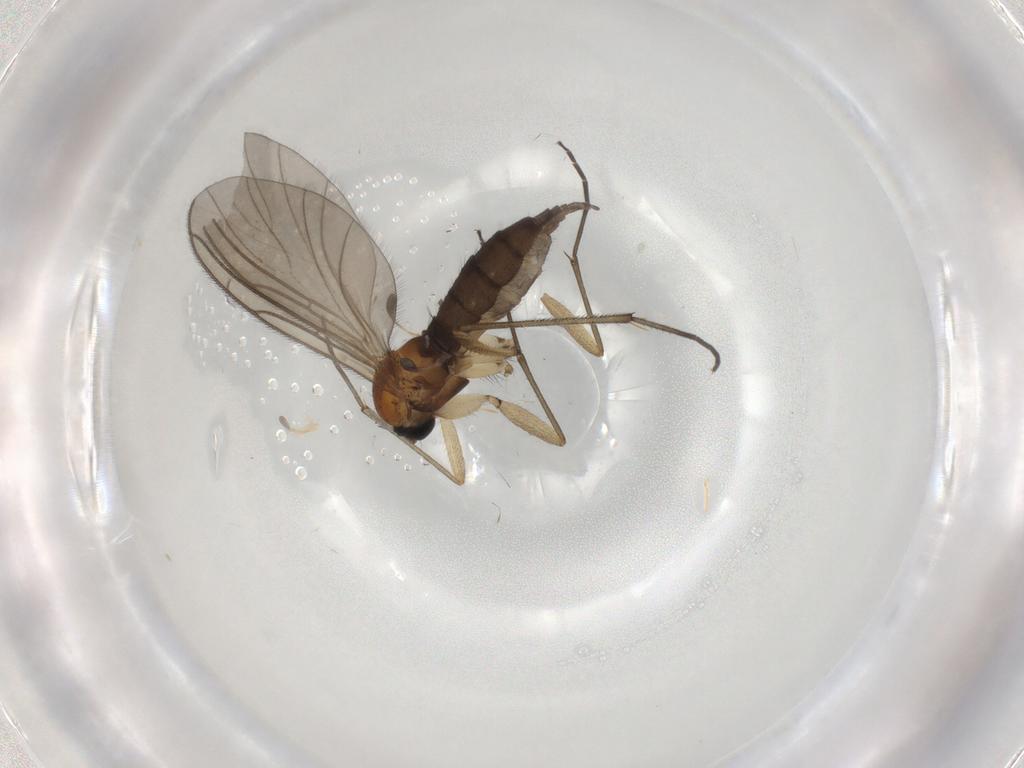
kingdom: Animalia
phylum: Arthropoda
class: Insecta
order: Diptera
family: Sciaridae
